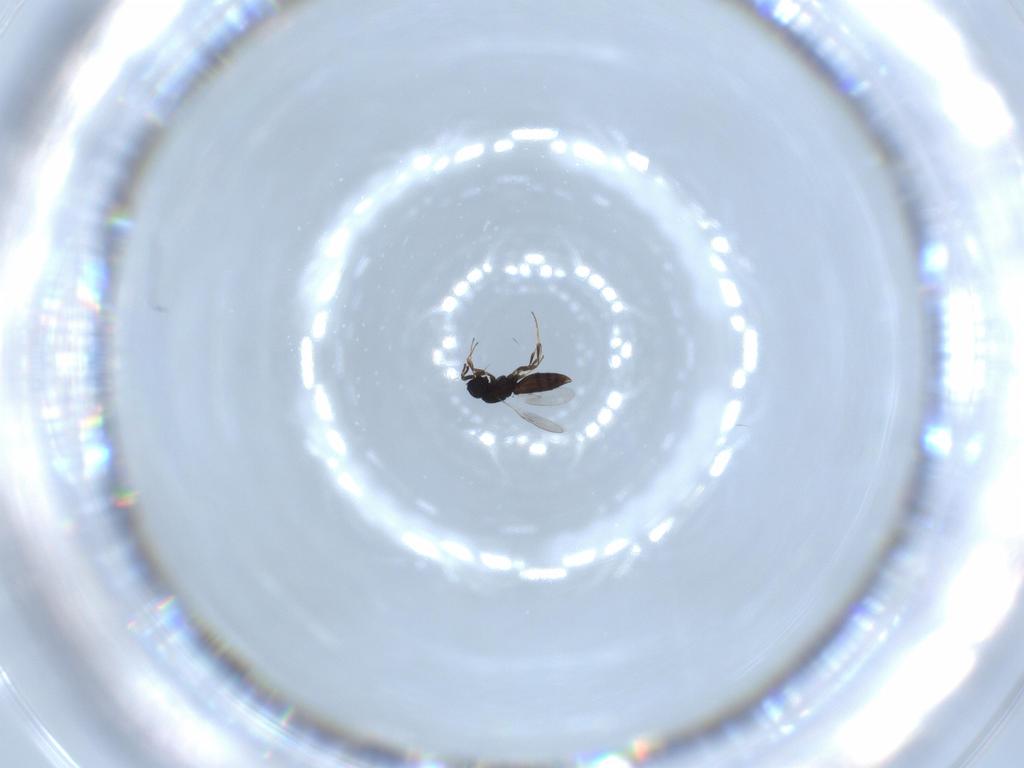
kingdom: Animalia
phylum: Arthropoda
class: Insecta
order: Hymenoptera
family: Scelionidae
